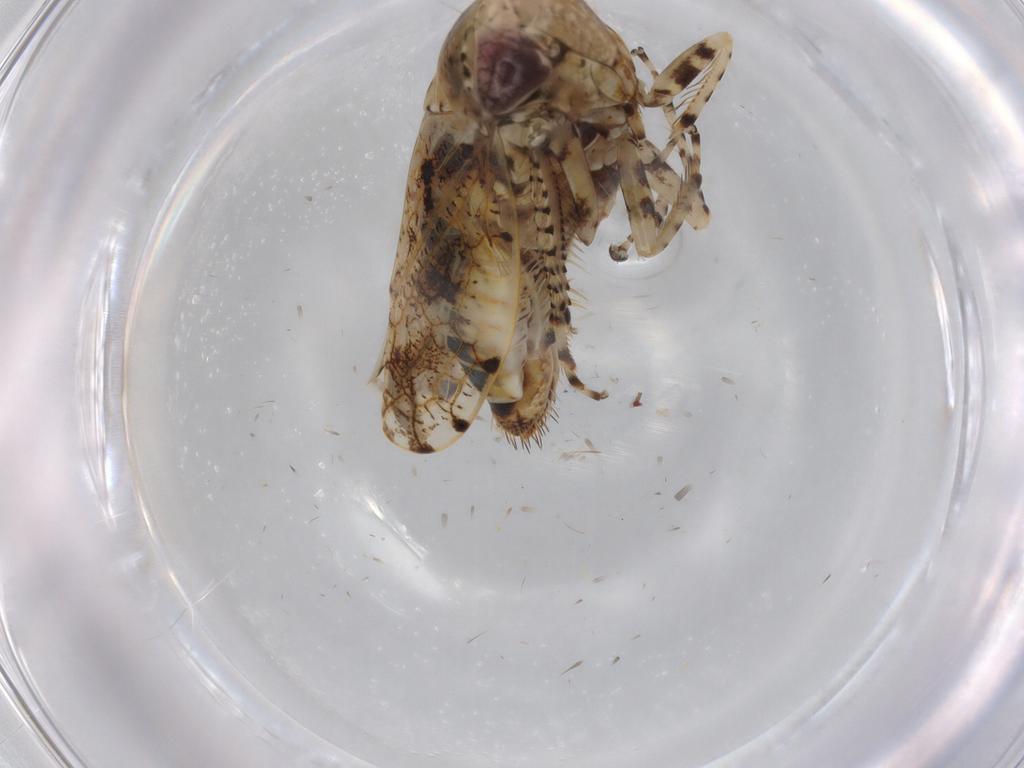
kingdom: Animalia
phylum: Arthropoda
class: Insecta
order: Hemiptera
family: Cicadellidae
